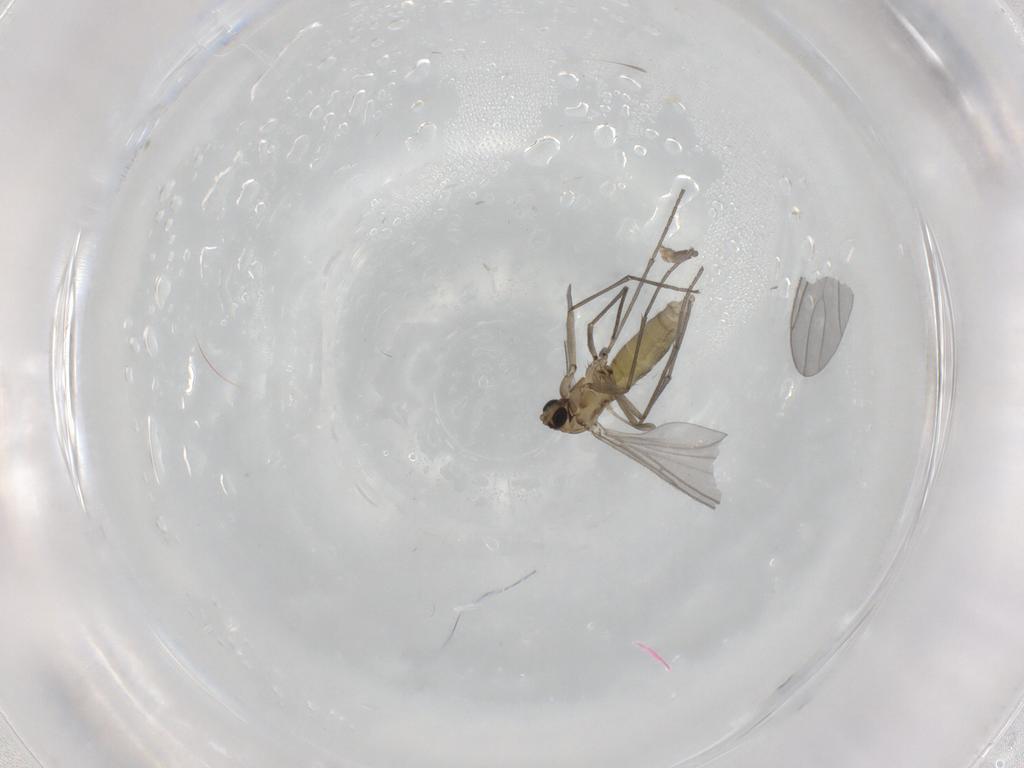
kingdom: Animalia
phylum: Arthropoda
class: Insecta
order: Diptera
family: Sciaridae
